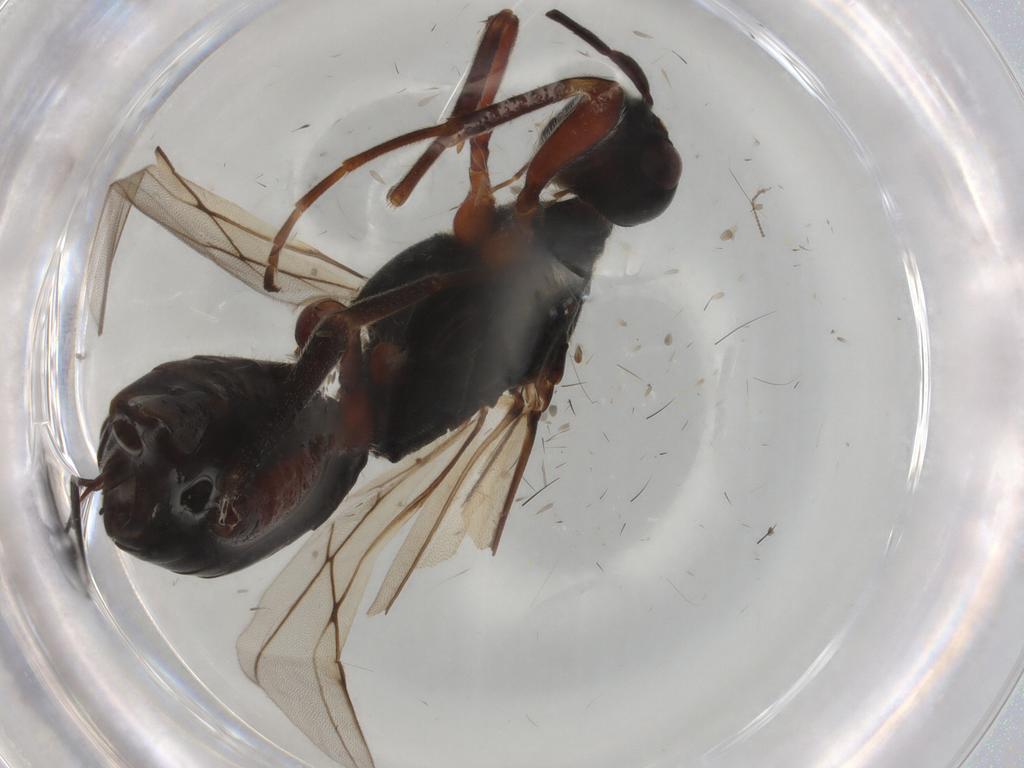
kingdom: Animalia
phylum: Arthropoda
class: Insecta
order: Hymenoptera
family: Braconidae
